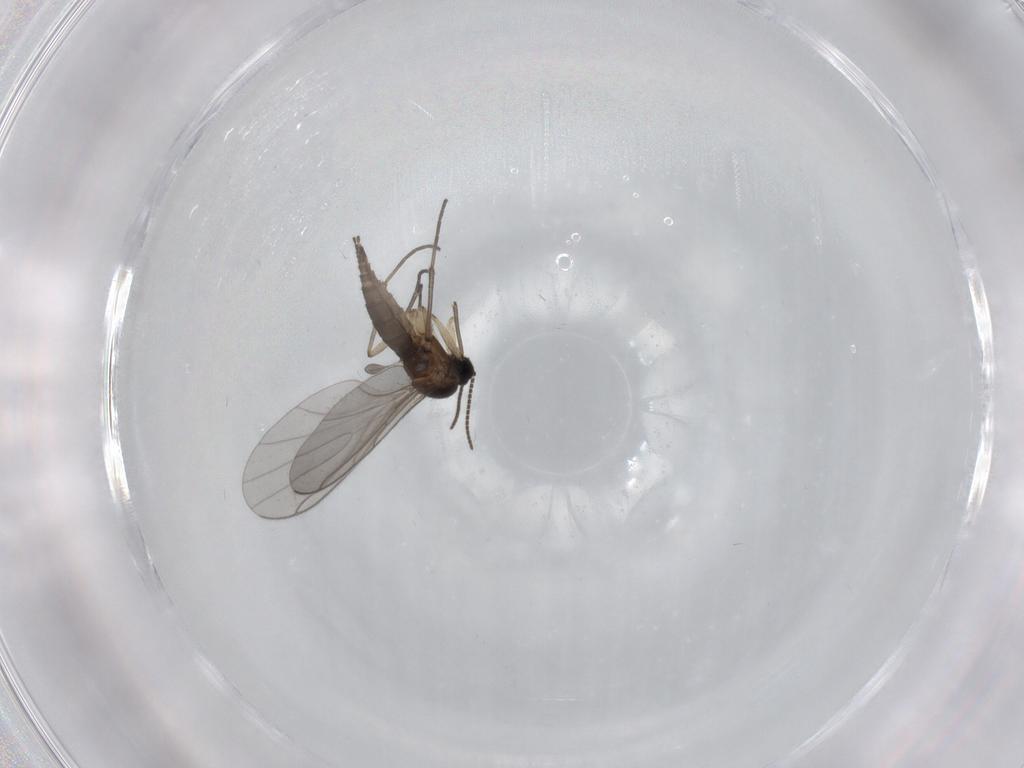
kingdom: Animalia
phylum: Arthropoda
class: Insecta
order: Diptera
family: Sciaridae
